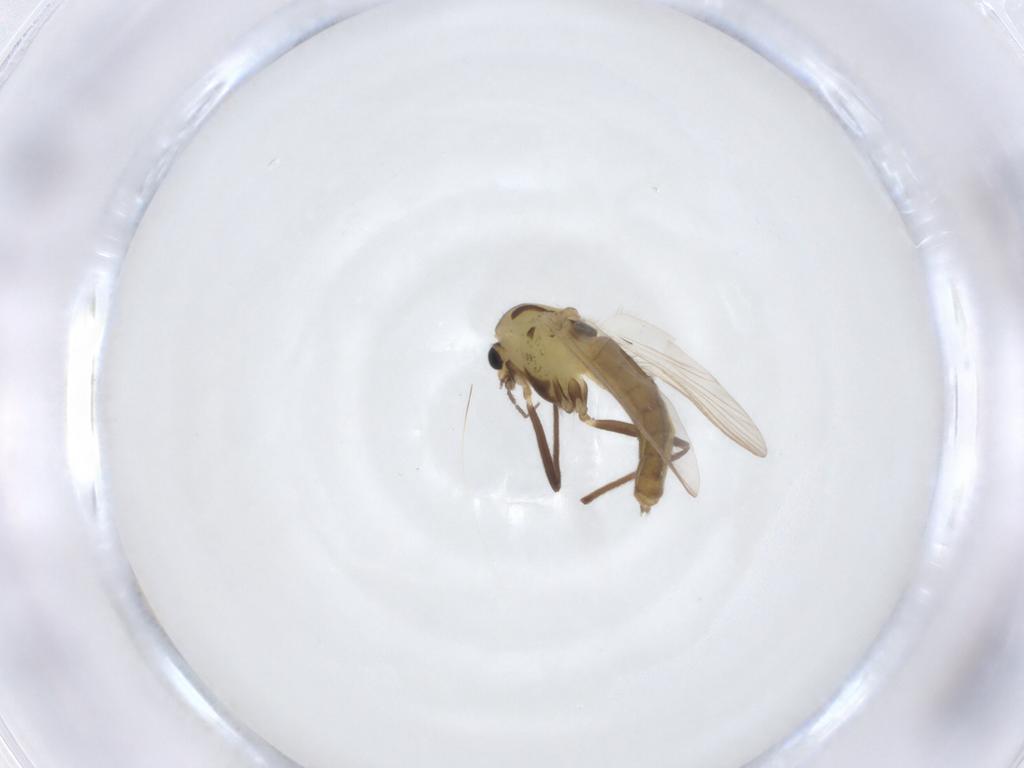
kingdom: Animalia
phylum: Arthropoda
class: Insecta
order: Diptera
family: Chironomidae
